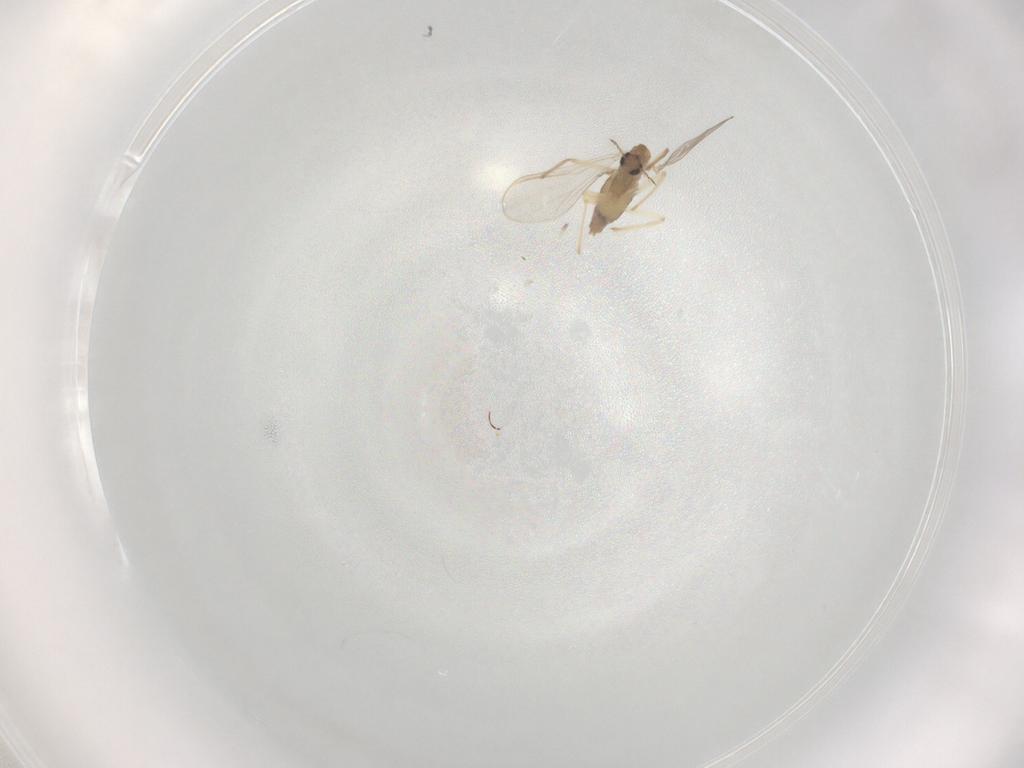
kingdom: Animalia
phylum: Arthropoda
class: Insecta
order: Diptera
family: Chironomidae
